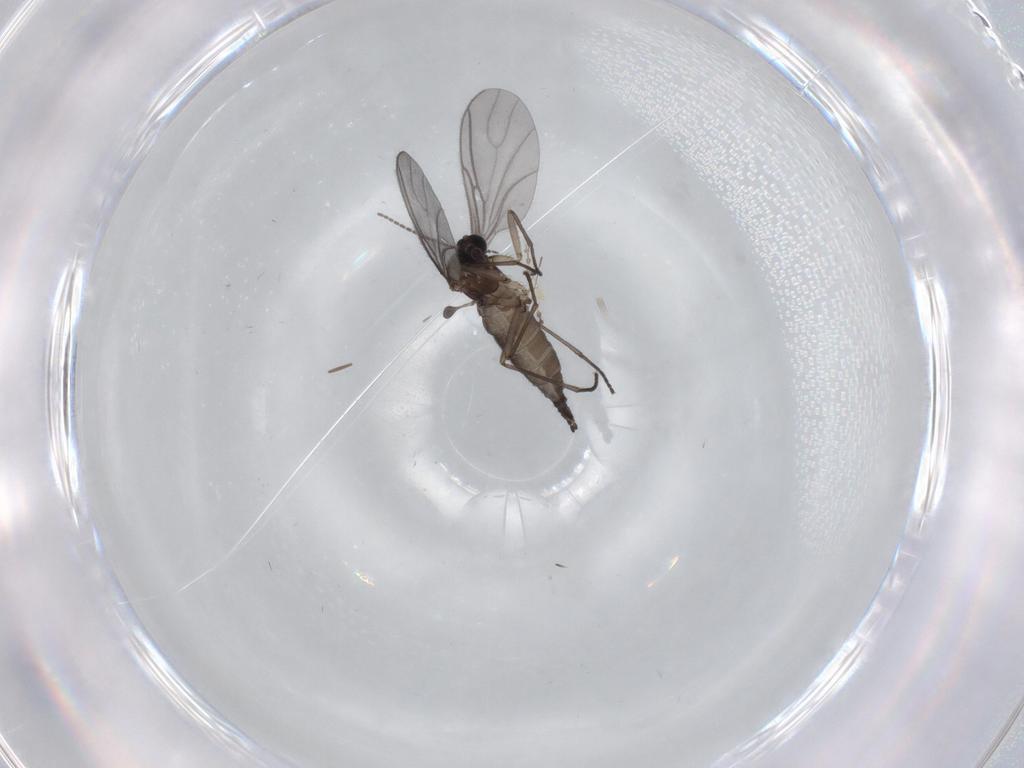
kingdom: Animalia
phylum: Arthropoda
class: Insecta
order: Diptera
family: Sciaridae
